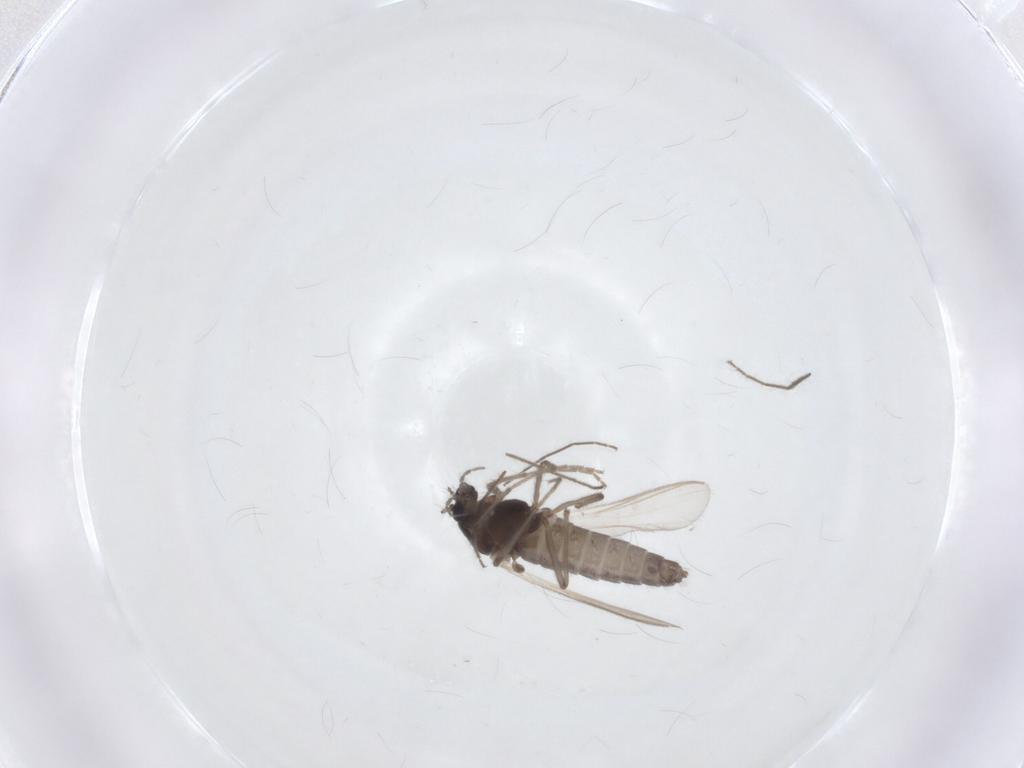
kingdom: Animalia
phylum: Arthropoda
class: Insecta
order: Diptera
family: Chironomidae
